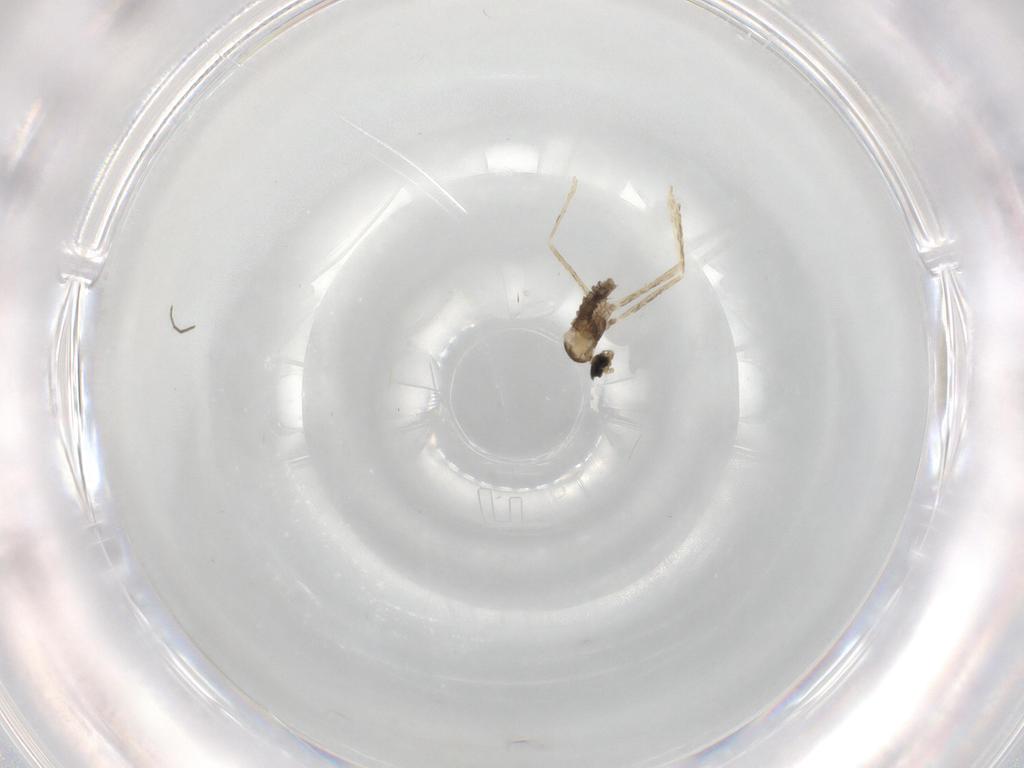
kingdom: Animalia
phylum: Arthropoda
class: Insecta
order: Diptera
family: Cecidomyiidae
